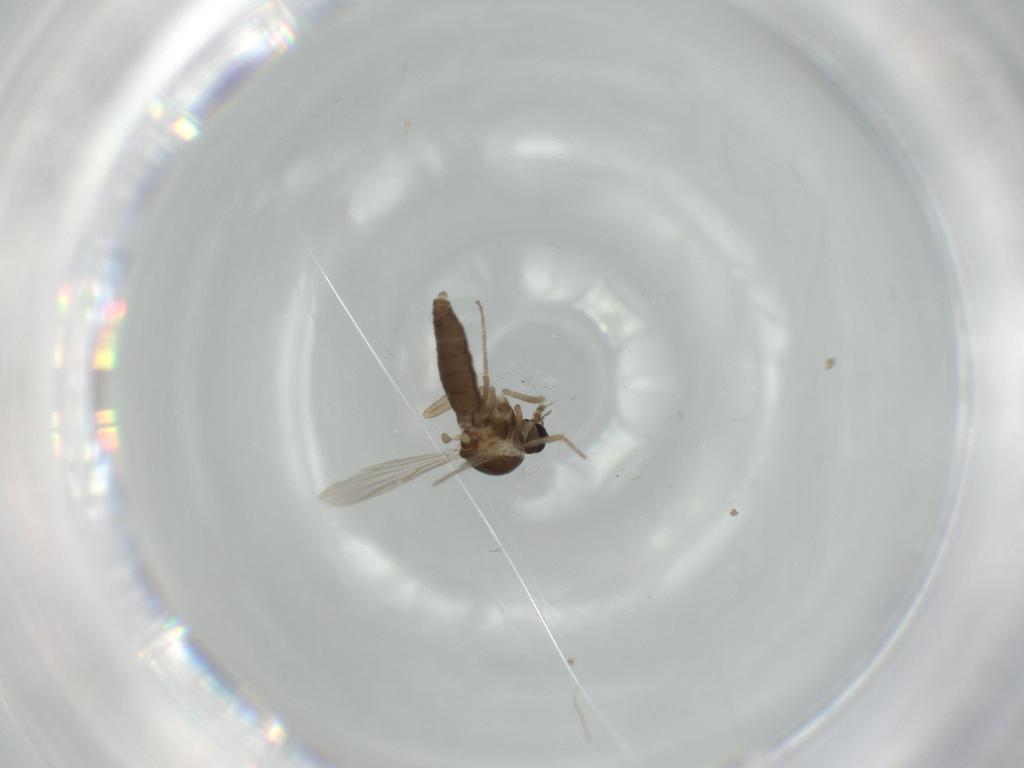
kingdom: Animalia
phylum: Arthropoda
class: Insecta
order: Diptera
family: Ceratopogonidae
